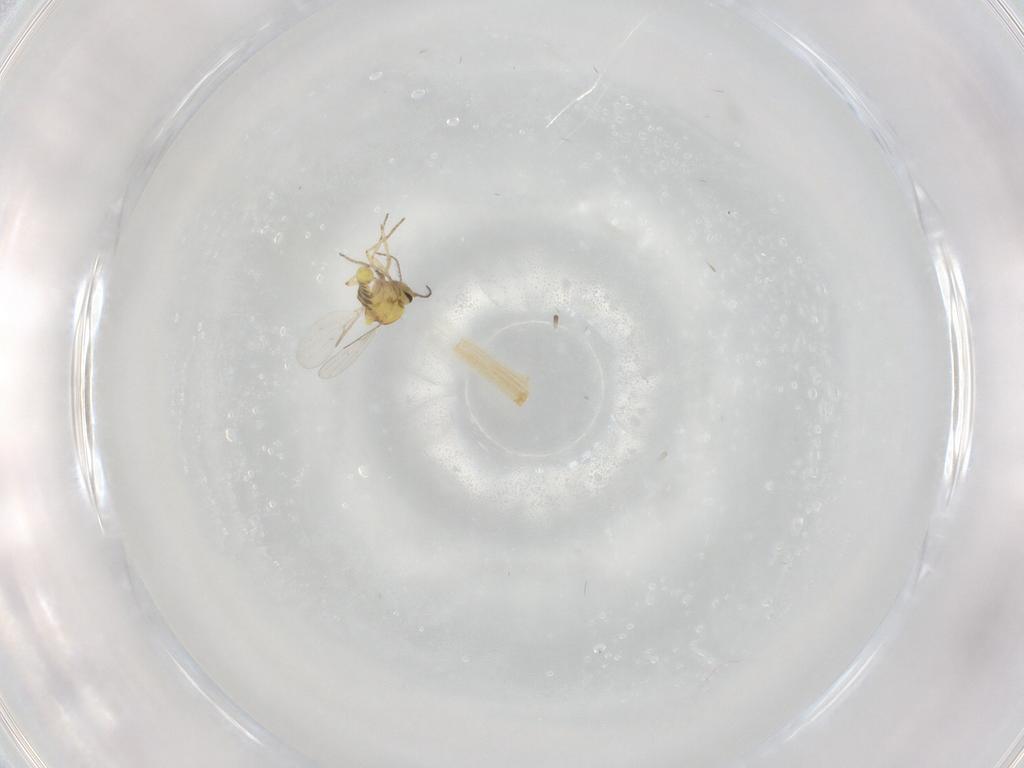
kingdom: Animalia
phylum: Arthropoda
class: Insecta
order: Diptera
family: Ceratopogonidae
